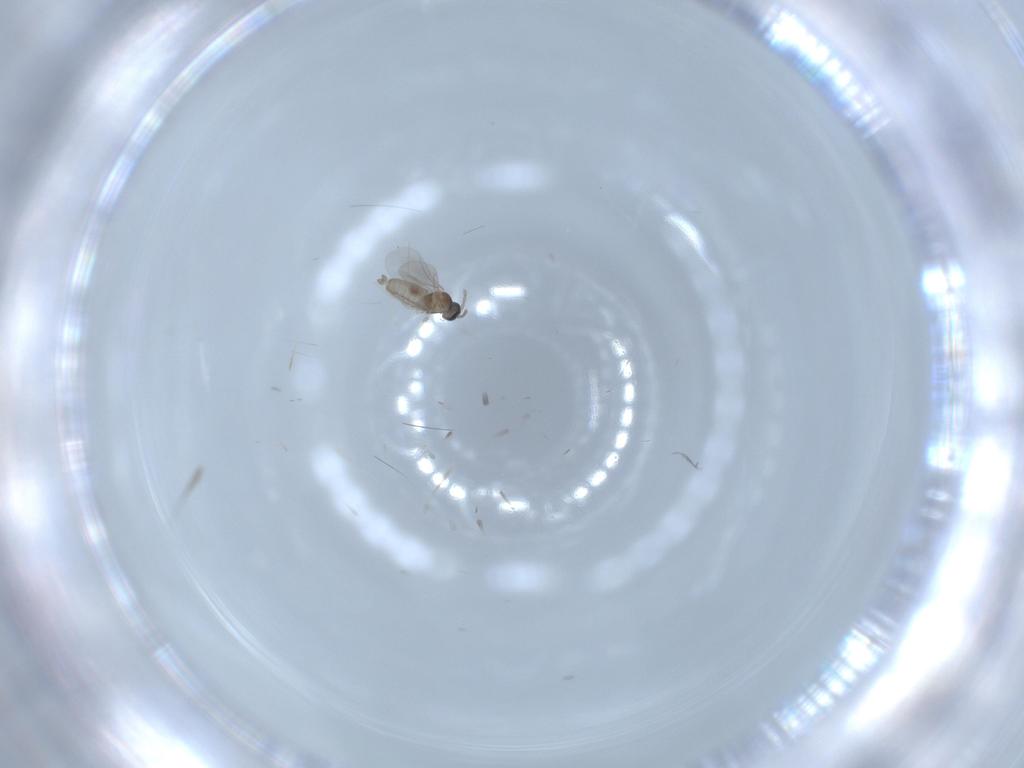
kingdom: Animalia
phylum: Arthropoda
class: Insecta
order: Diptera
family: Cecidomyiidae
